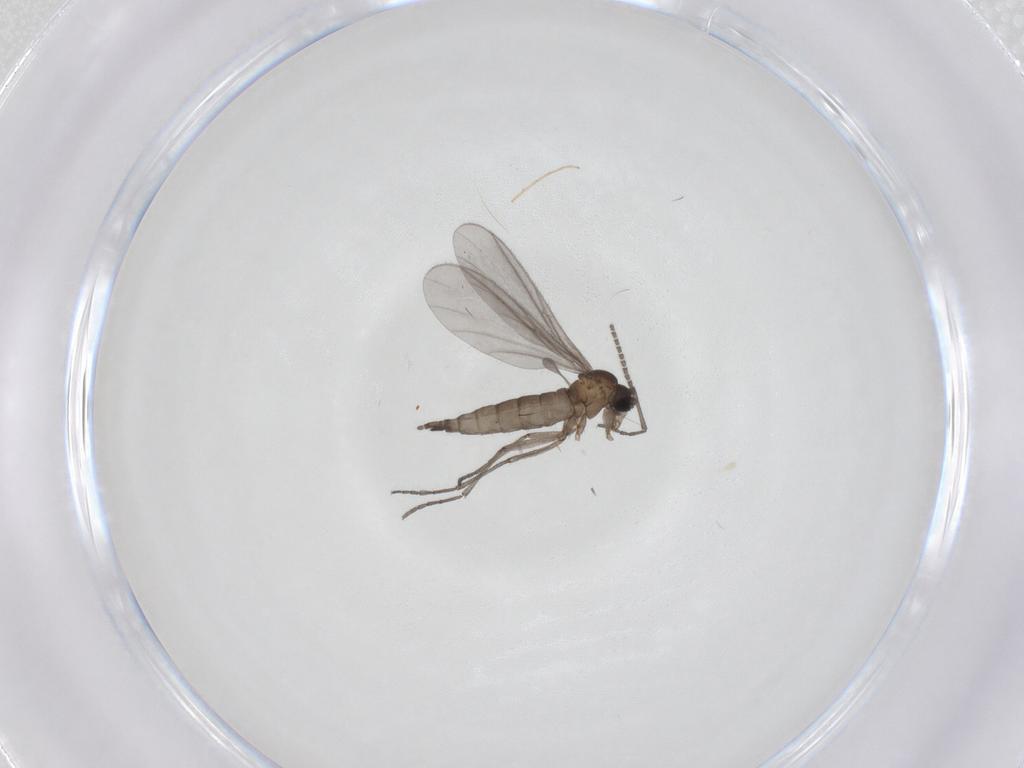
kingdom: Animalia
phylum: Arthropoda
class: Insecta
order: Diptera
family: Sciaridae
